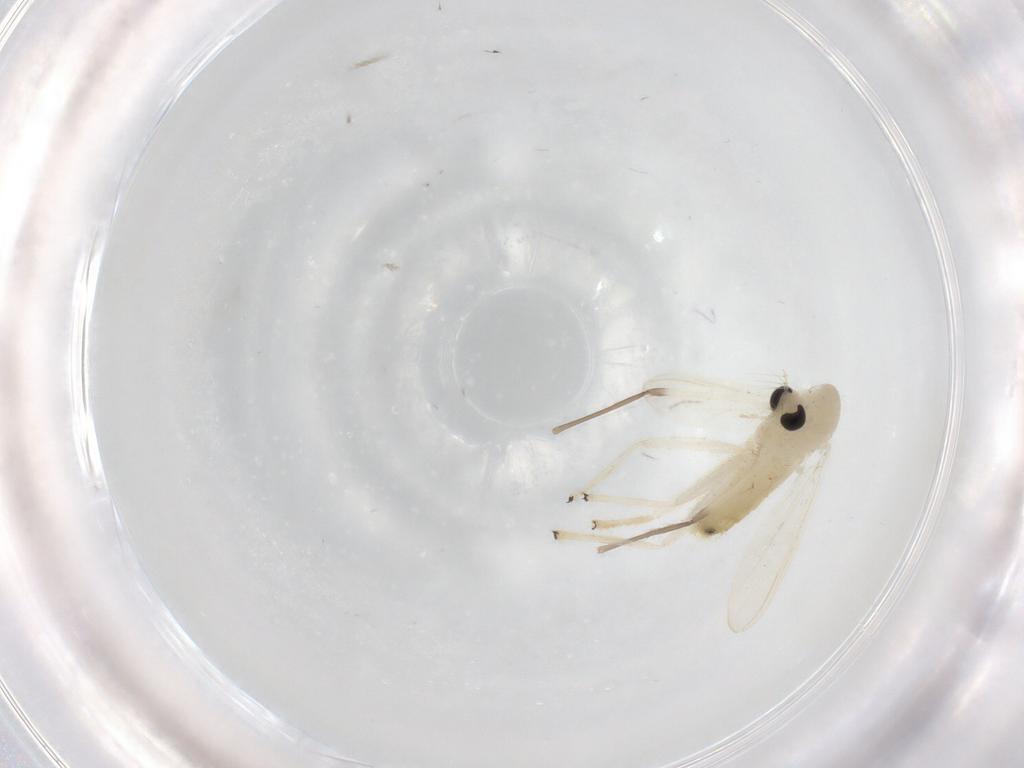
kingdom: Animalia
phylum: Arthropoda
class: Insecta
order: Diptera
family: Chironomidae
